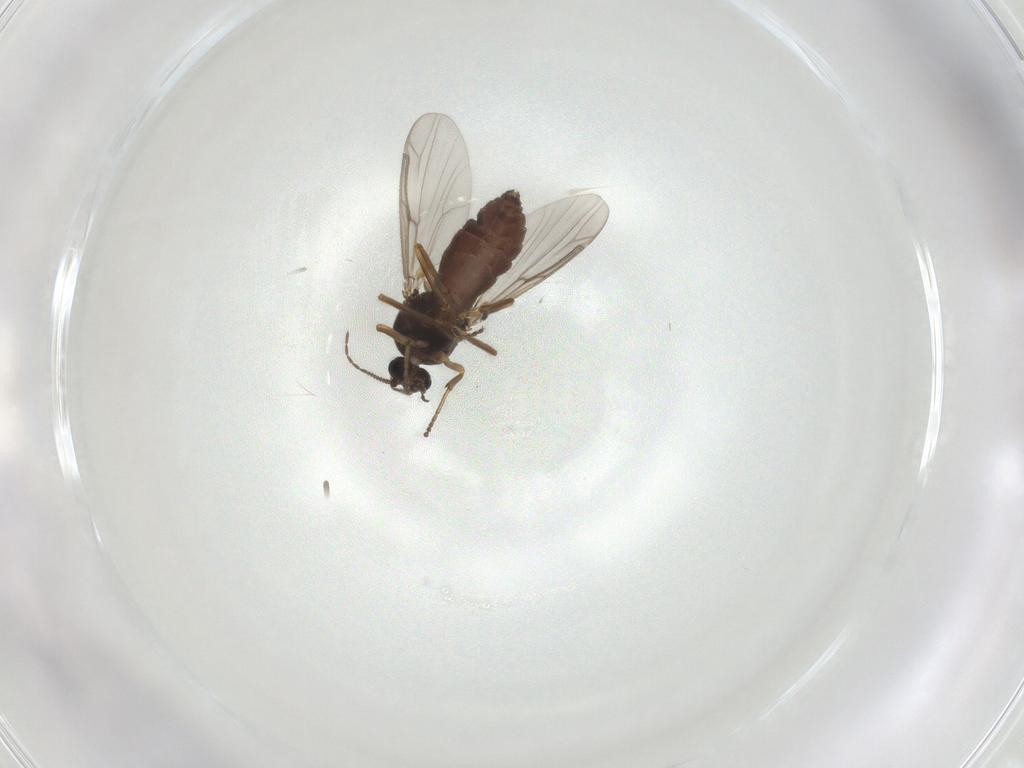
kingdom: Animalia
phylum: Arthropoda
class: Insecta
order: Diptera
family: Ceratopogonidae
